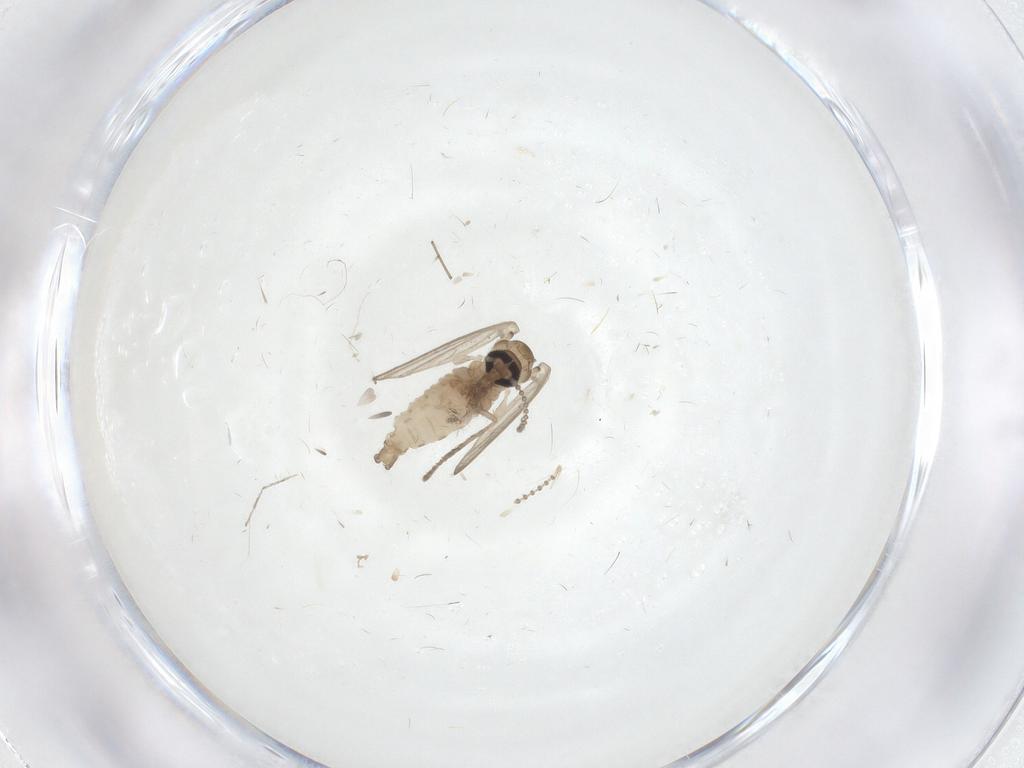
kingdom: Animalia
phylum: Arthropoda
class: Insecta
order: Diptera
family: Psychodidae
